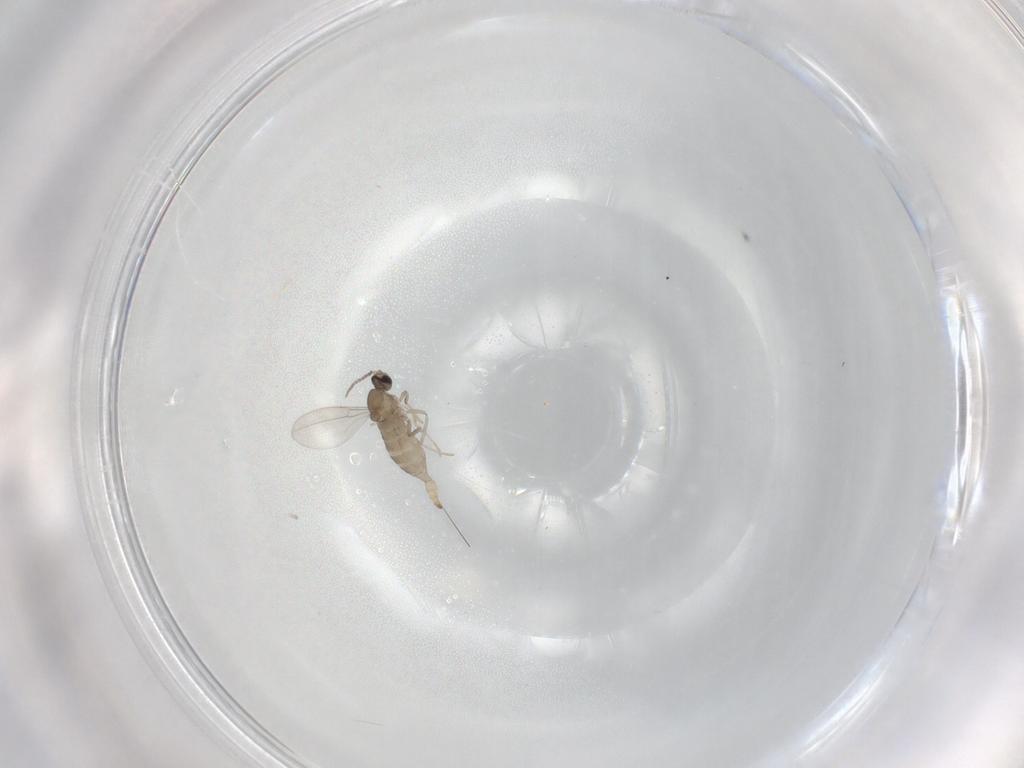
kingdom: Animalia
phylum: Arthropoda
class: Insecta
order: Diptera
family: Cecidomyiidae
